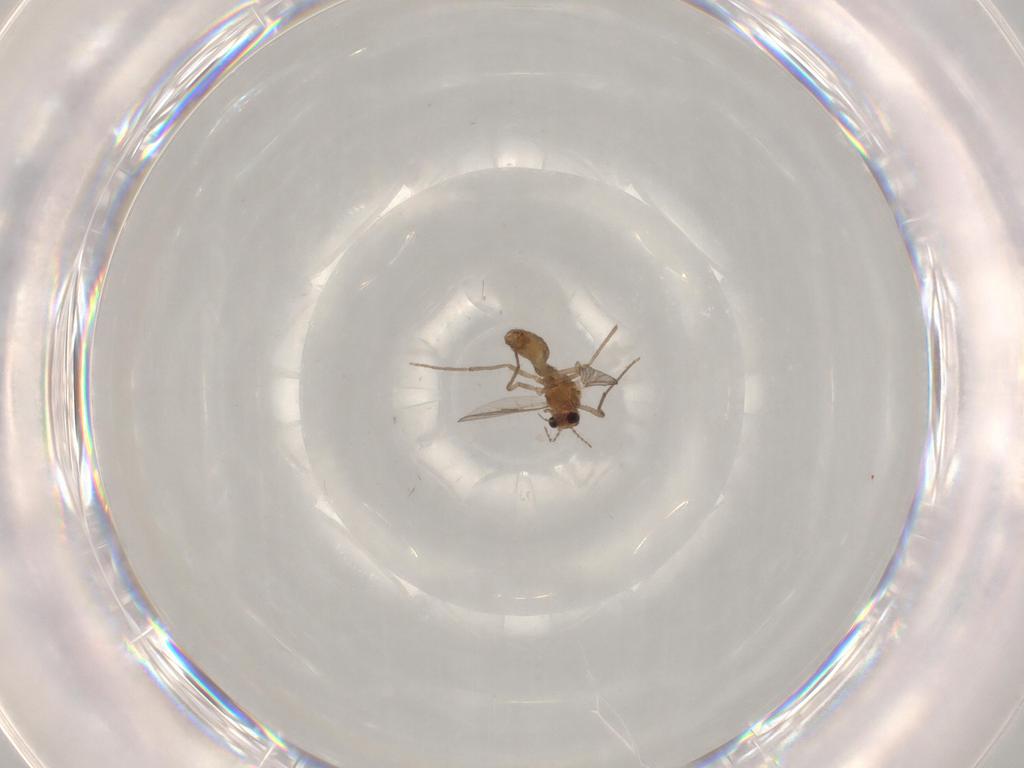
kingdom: Animalia
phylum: Arthropoda
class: Insecta
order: Diptera
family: Chironomidae
